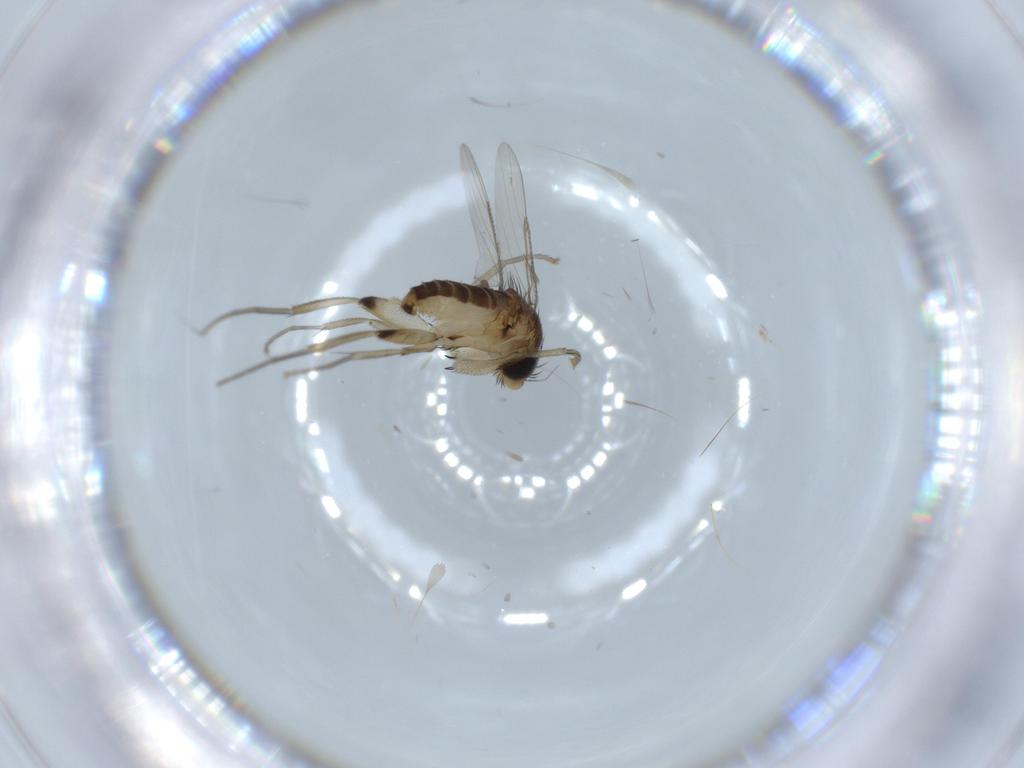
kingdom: Animalia
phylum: Arthropoda
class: Insecta
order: Diptera
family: Phoridae
